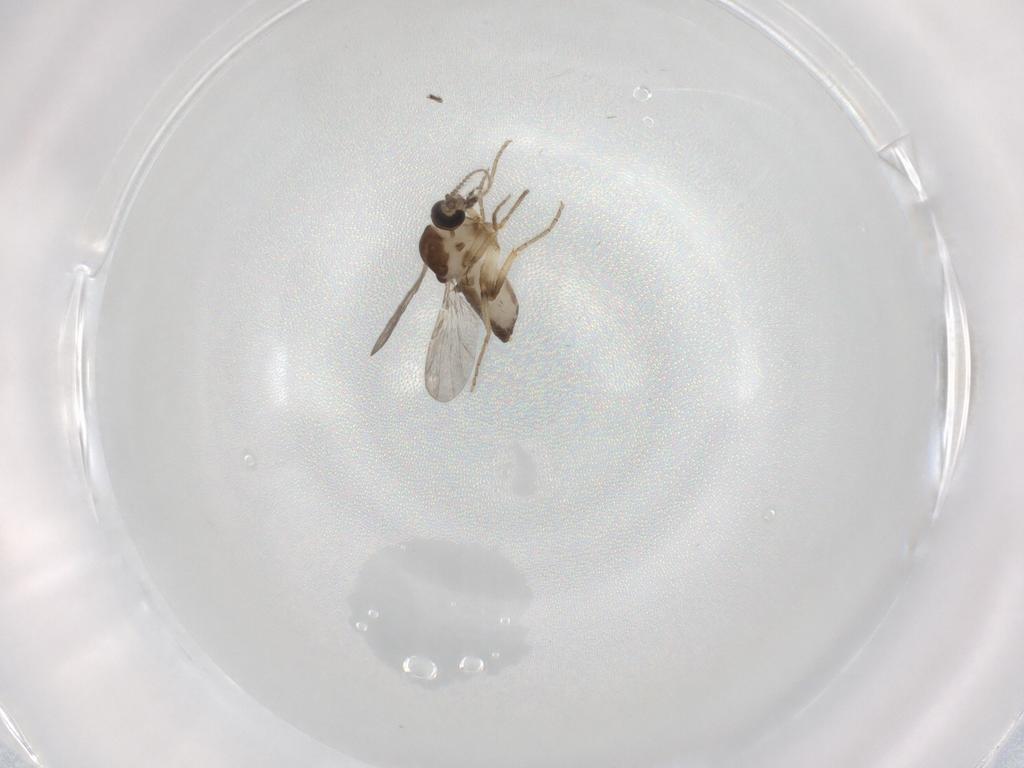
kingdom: Animalia
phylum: Arthropoda
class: Insecta
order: Diptera
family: Ceratopogonidae
